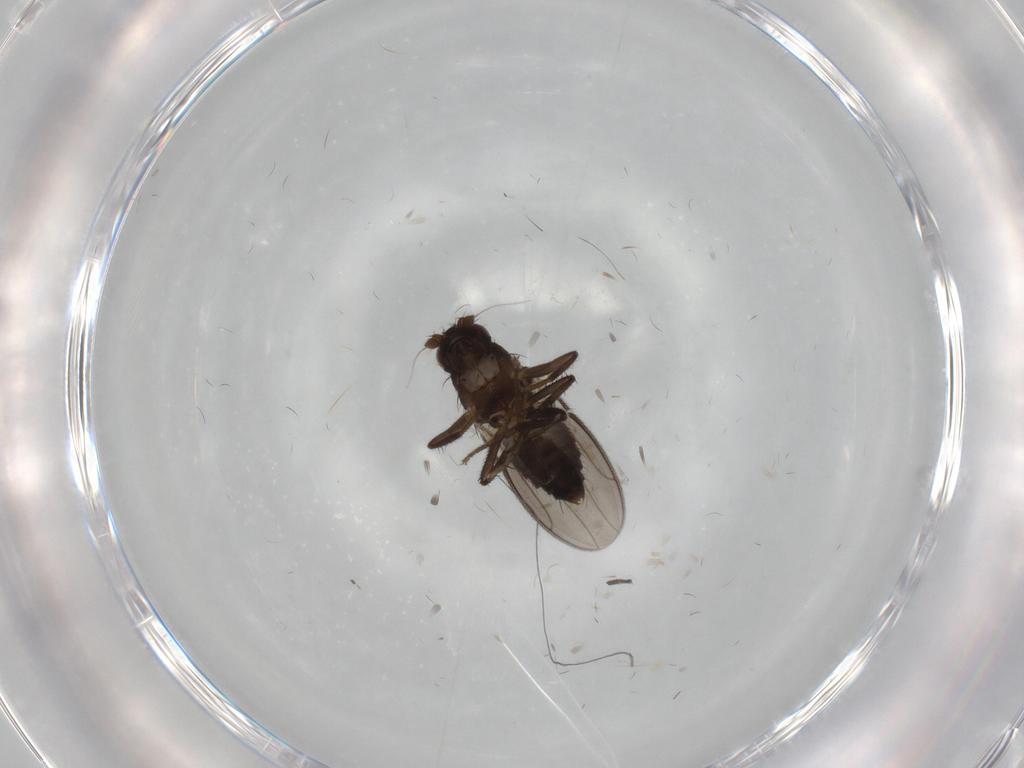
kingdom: Animalia
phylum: Arthropoda
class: Insecta
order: Diptera
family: Sphaeroceridae
